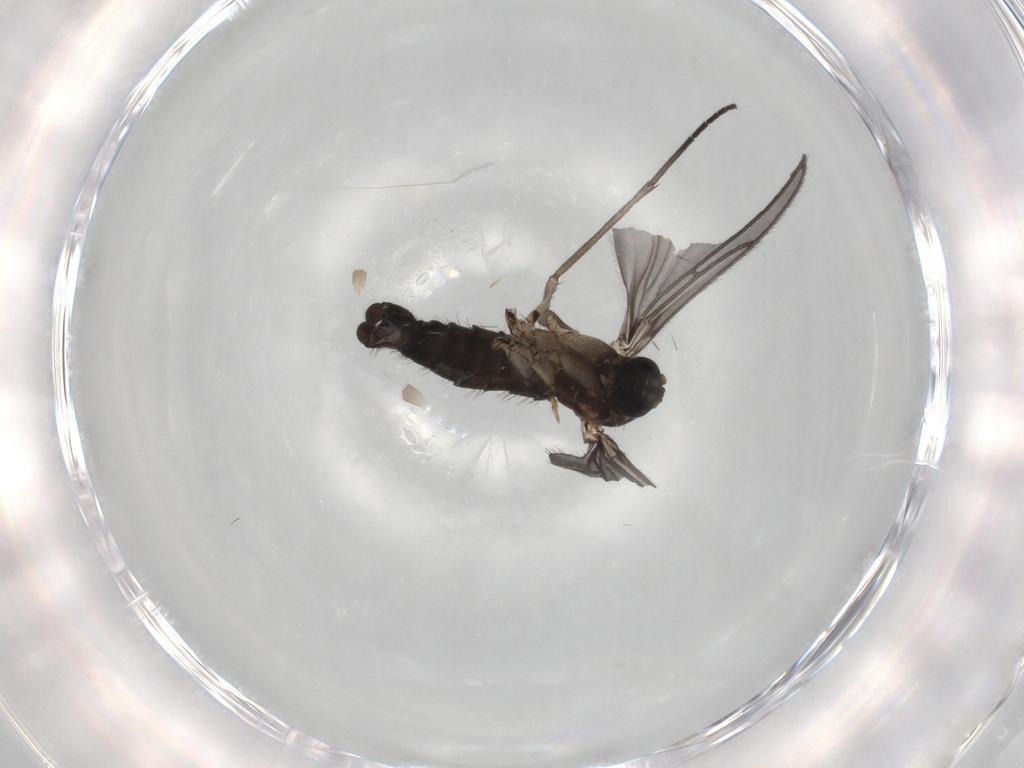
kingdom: Animalia
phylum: Arthropoda
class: Insecta
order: Diptera
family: Sciaridae
